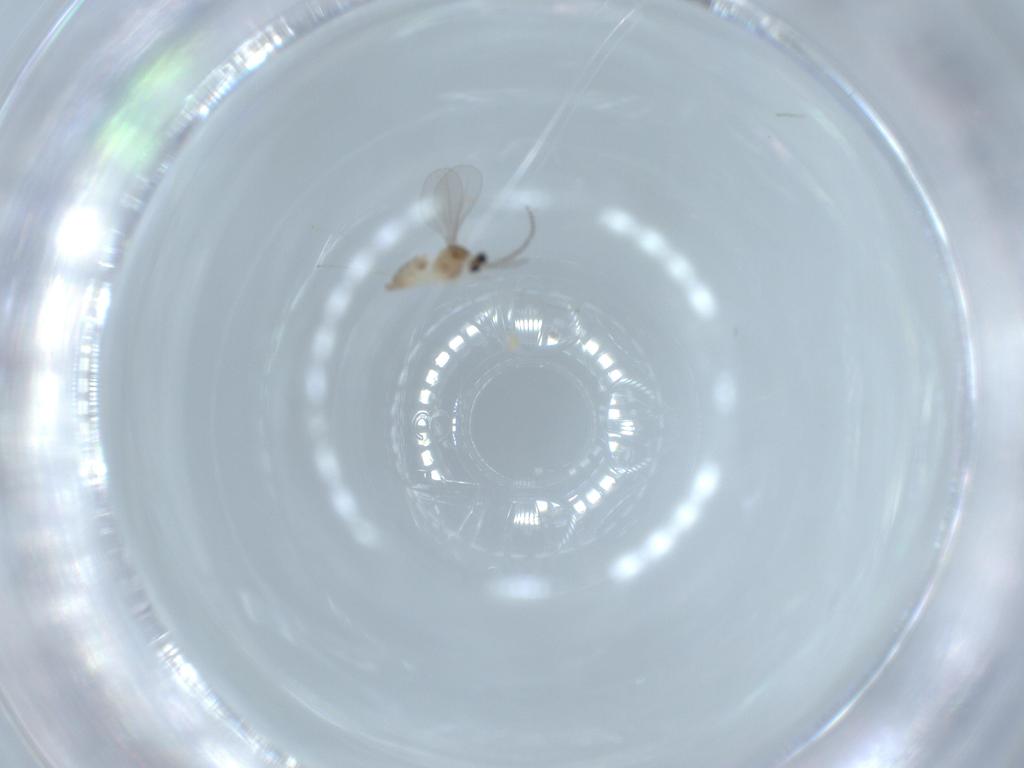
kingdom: Animalia
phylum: Arthropoda
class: Insecta
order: Diptera
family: Cecidomyiidae
